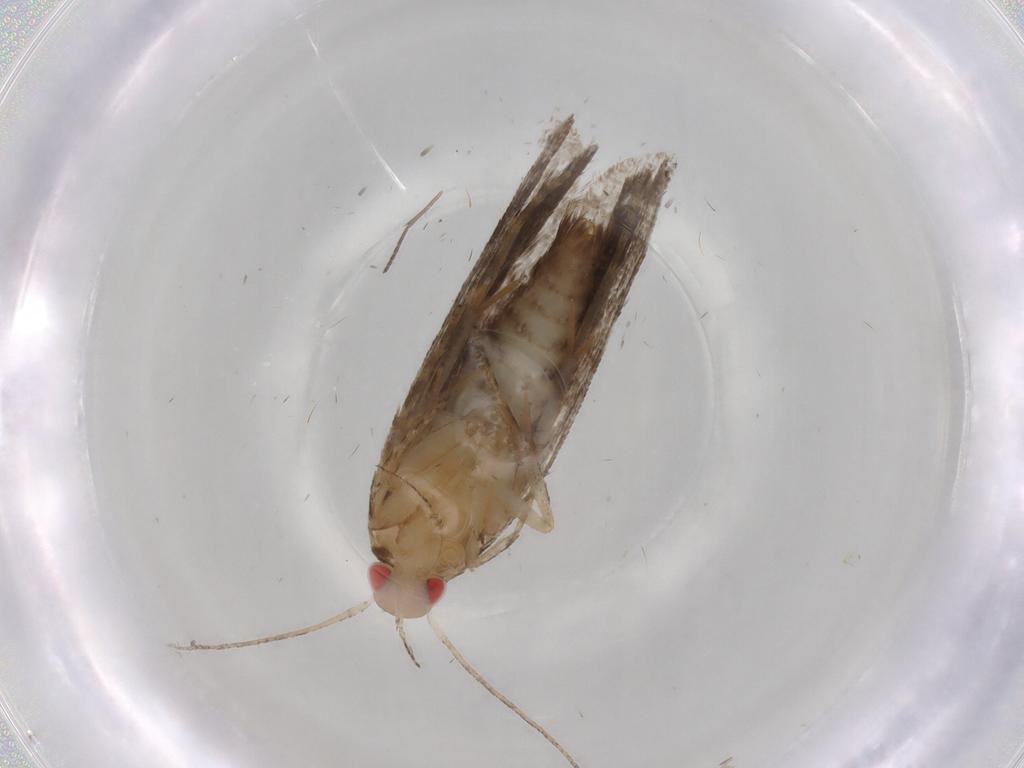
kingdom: Animalia
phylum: Arthropoda
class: Insecta
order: Lepidoptera
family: Crambidae
